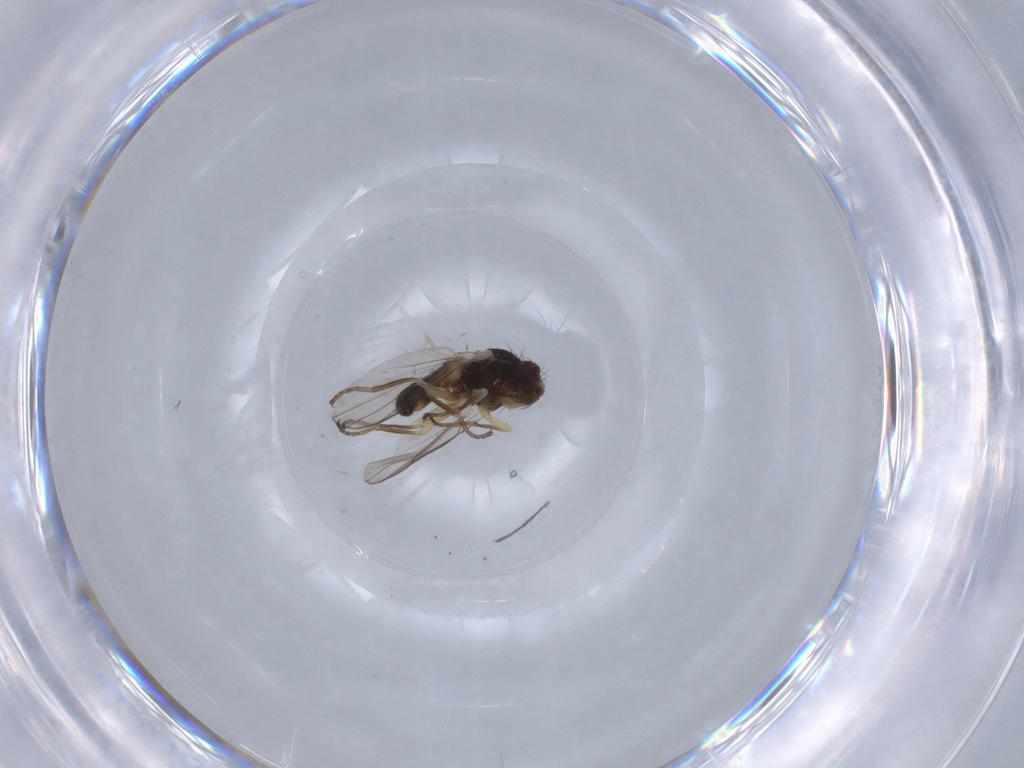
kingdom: Animalia
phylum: Arthropoda
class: Insecta
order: Diptera
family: Agromyzidae
